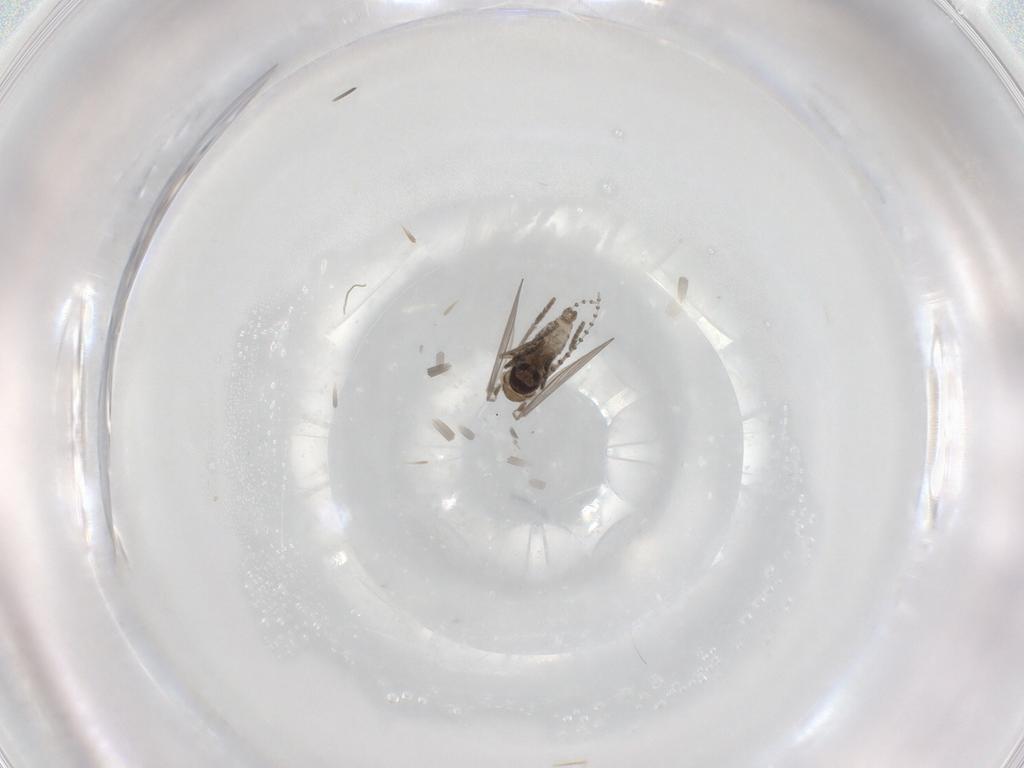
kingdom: Animalia
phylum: Arthropoda
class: Insecta
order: Diptera
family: Psychodidae
